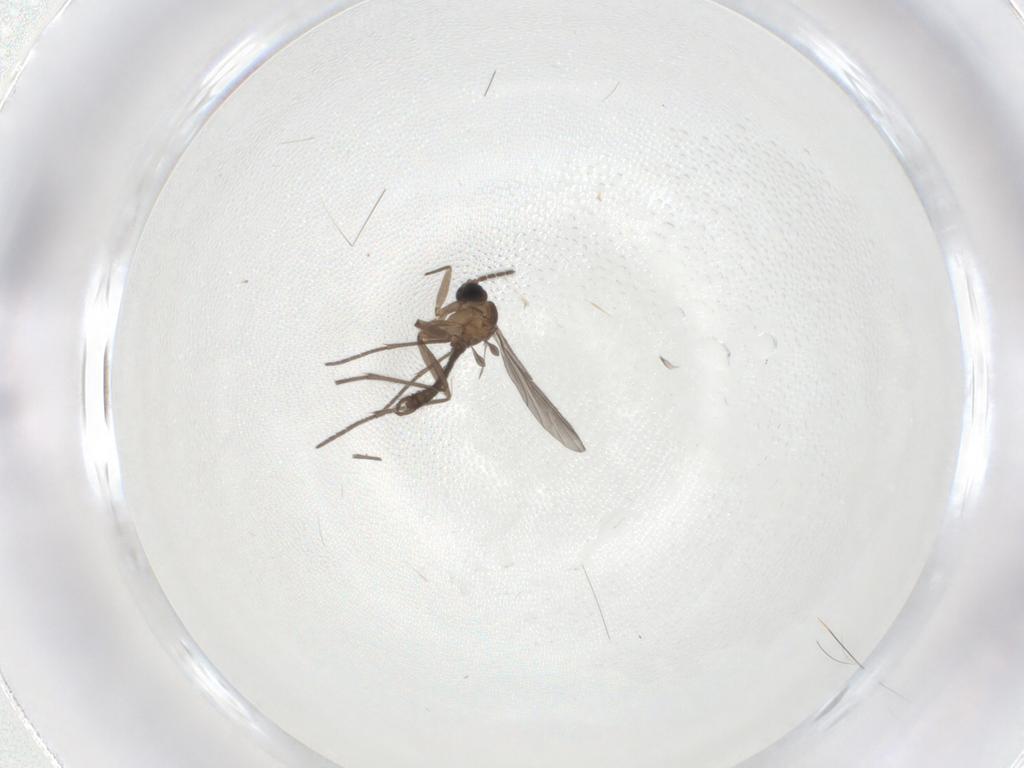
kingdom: Animalia
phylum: Arthropoda
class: Insecta
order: Diptera
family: Sciaridae
